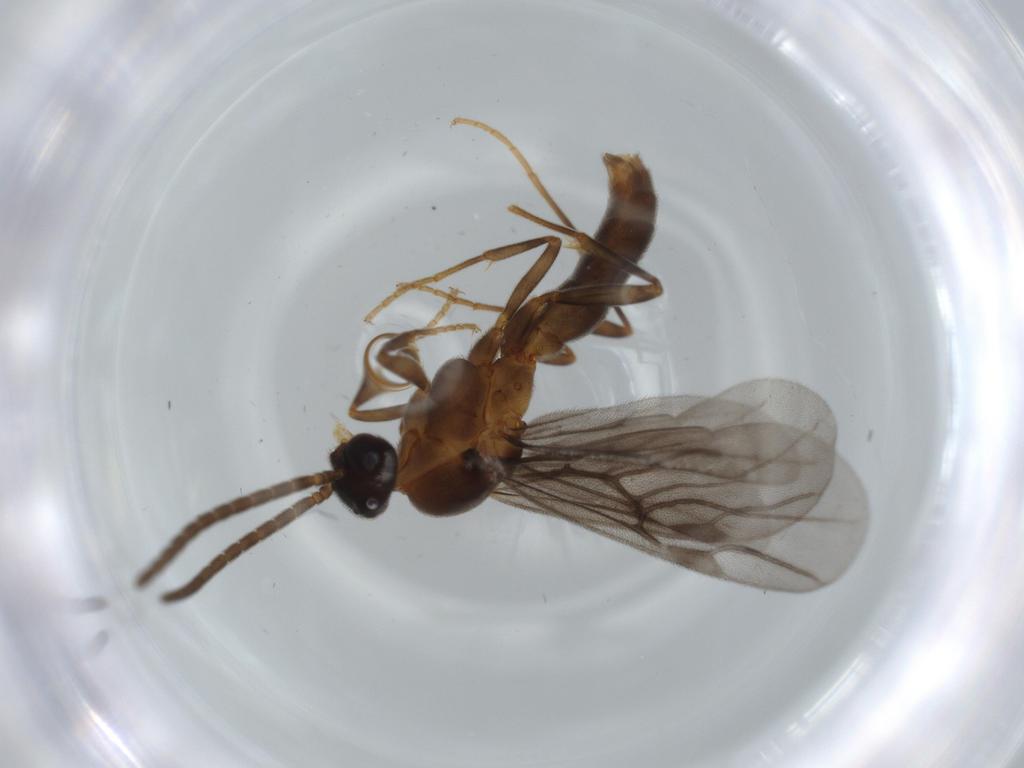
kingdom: Animalia
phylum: Arthropoda
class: Insecta
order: Hymenoptera
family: Formicidae
